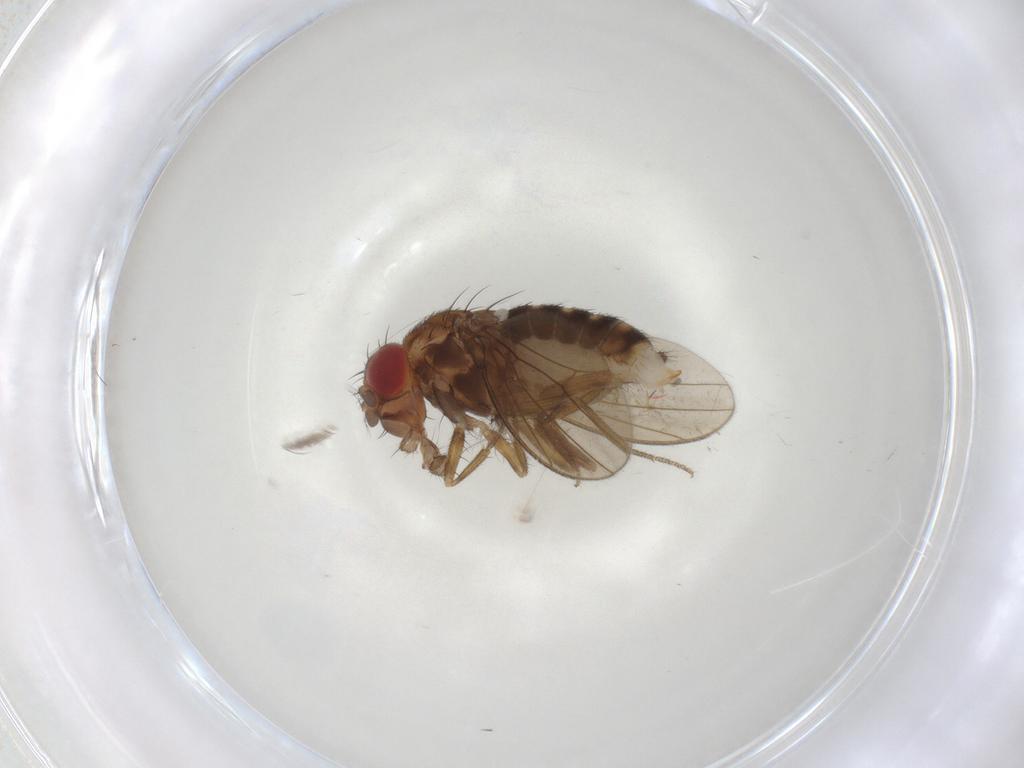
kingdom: Animalia
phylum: Arthropoda
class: Insecta
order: Diptera
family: Drosophilidae
